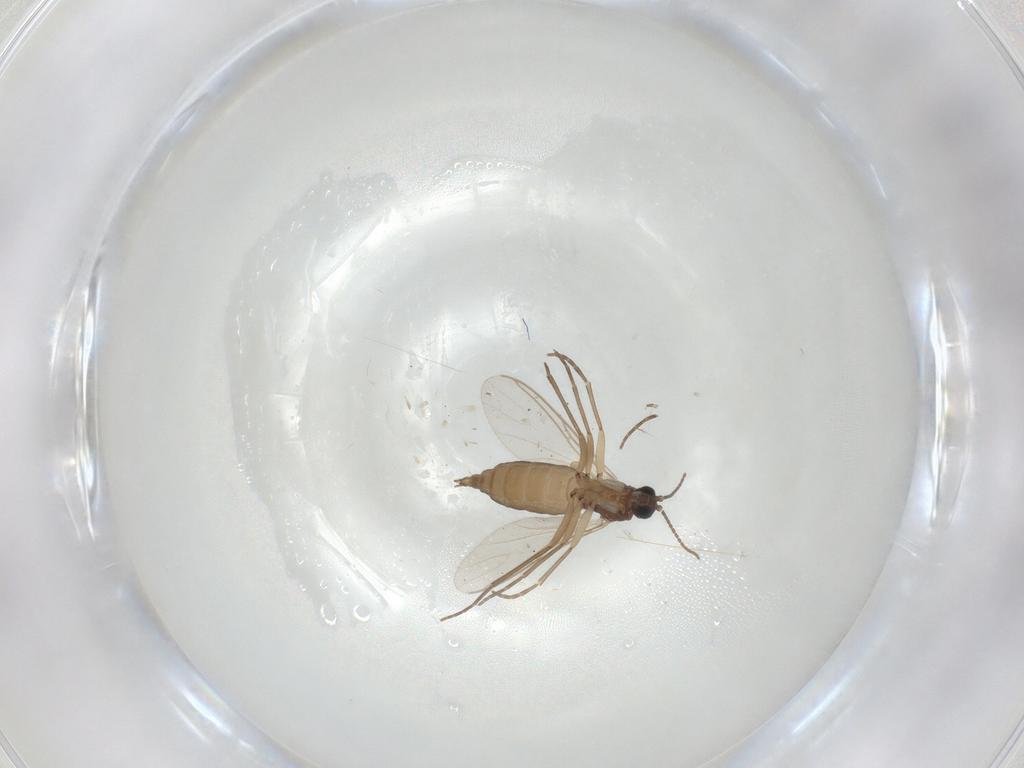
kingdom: Animalia
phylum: Arthropoda
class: Insecta
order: Diptera
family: Sciaridae
